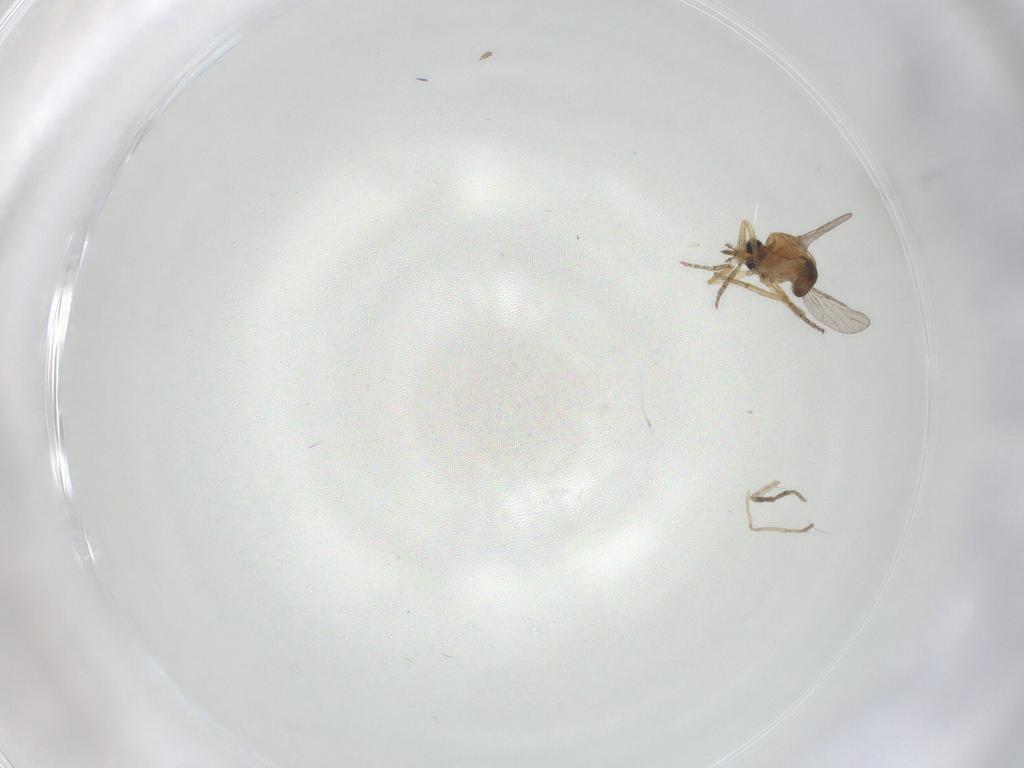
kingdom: Animalia
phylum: Arthropoda
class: Insecta
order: Diptera
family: Ceratopogonidae
